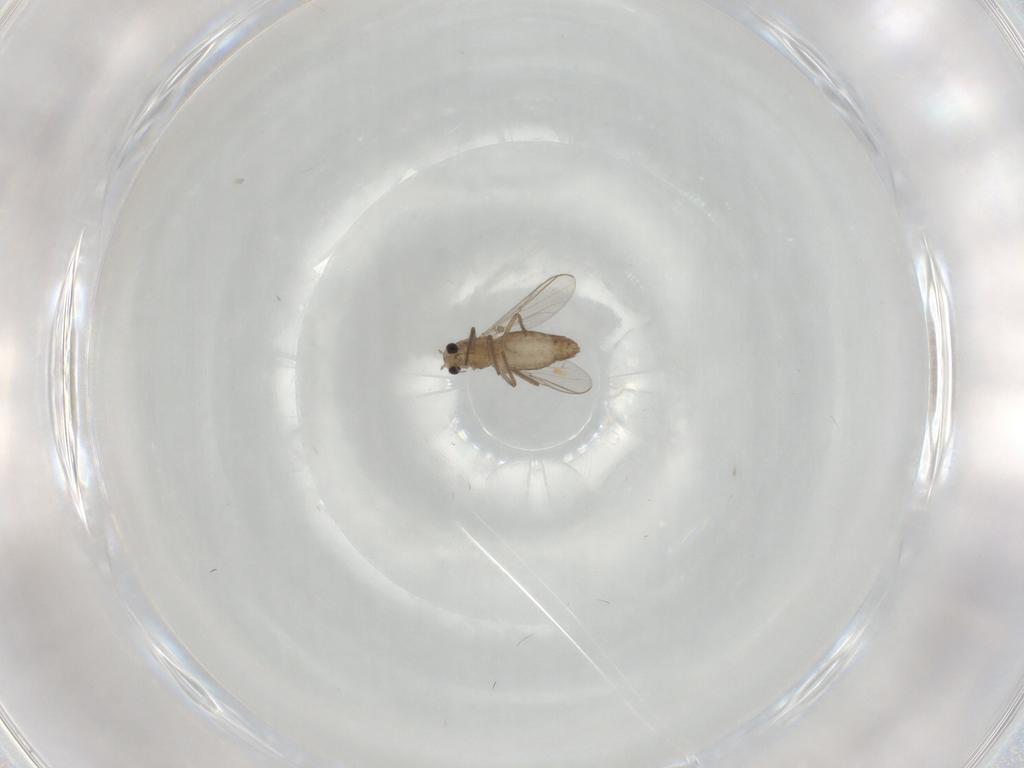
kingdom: Animalia
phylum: Arthropoda
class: Insecta
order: Diptera
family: Chironomidae
